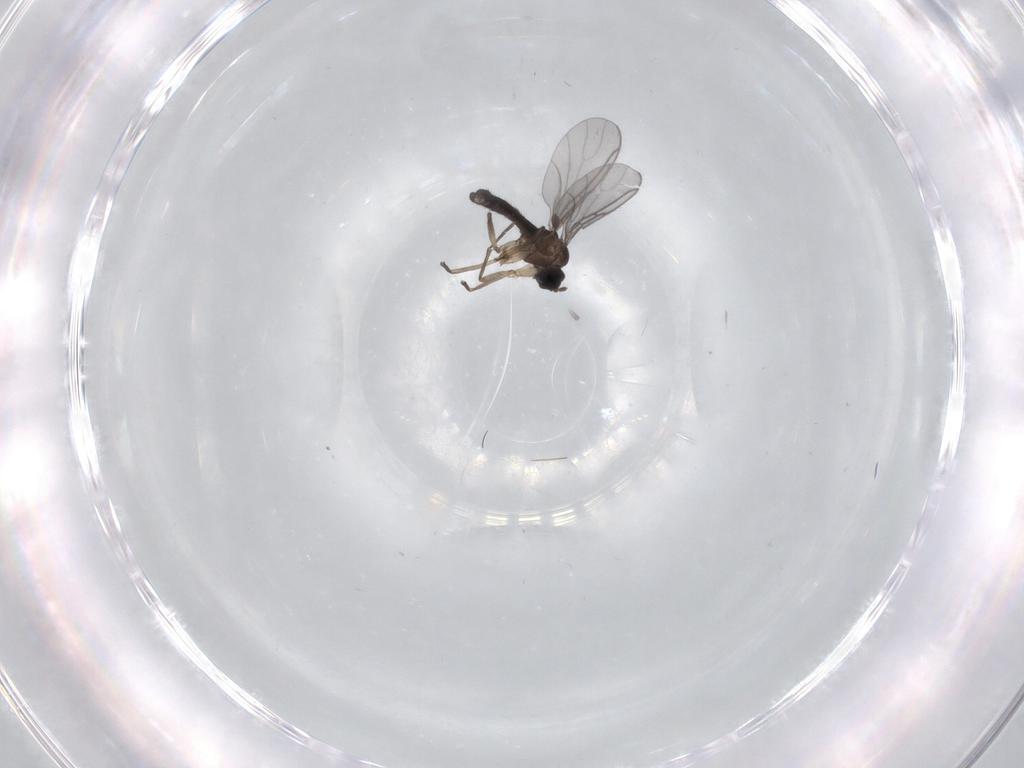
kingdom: Animalia
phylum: Arthropoda
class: Insecta
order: Diptera
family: Sciaridae
